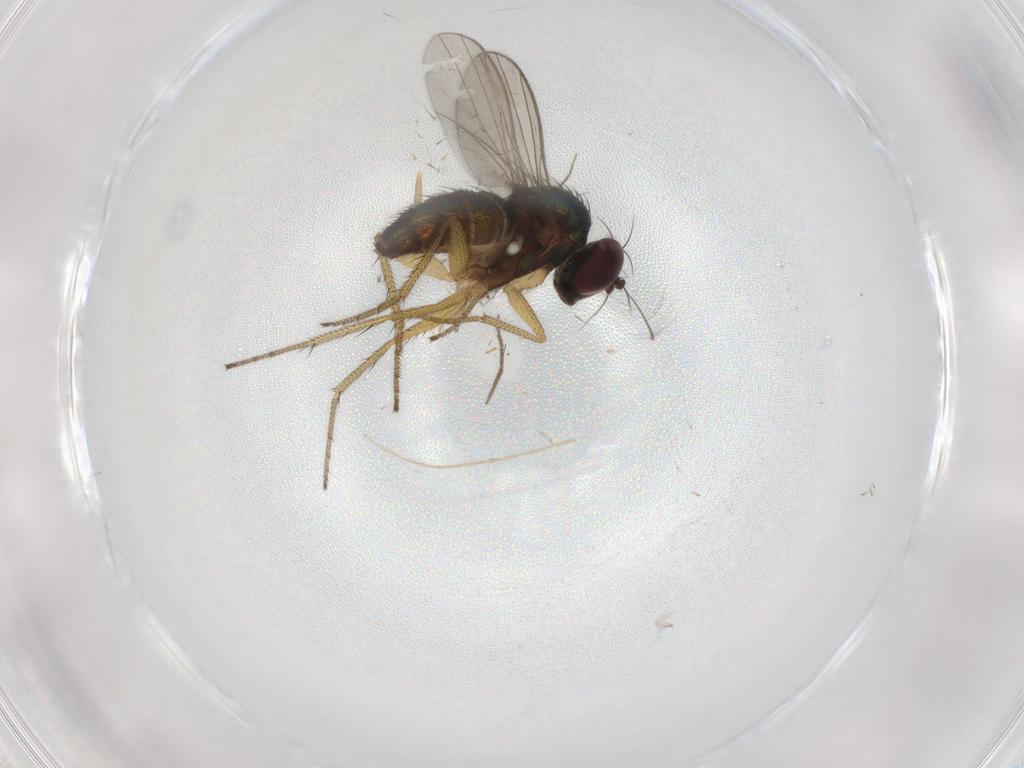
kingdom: Animalia
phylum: Arthropoda
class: Insecta
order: Diptera
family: Chironomidae
